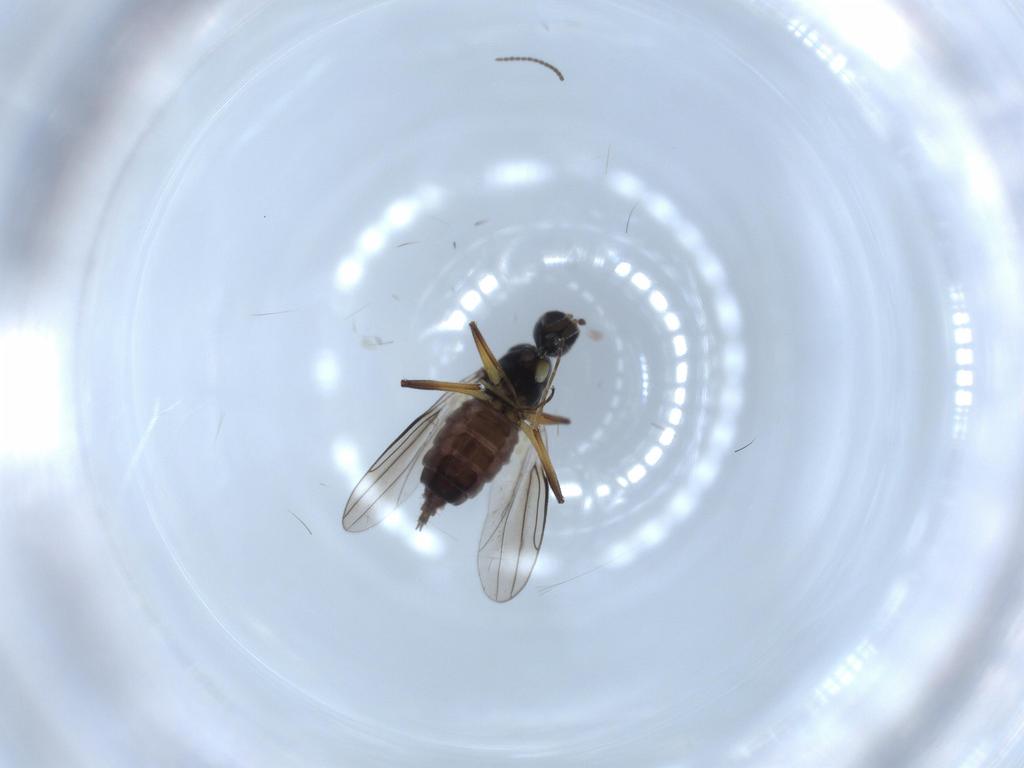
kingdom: Animalia
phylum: Arthropoda
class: Insecta
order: Diptera
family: Hybotidae
